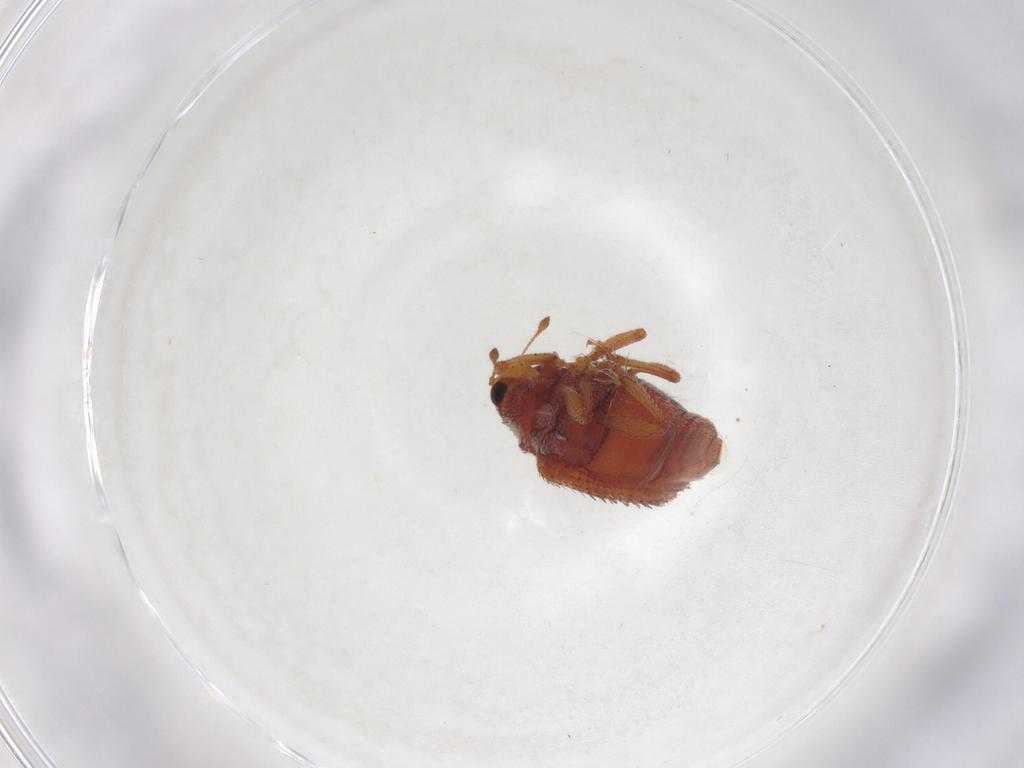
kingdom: Animalia
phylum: Arthropoda
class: Insecta
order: Coleoptera
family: Curculionidae
